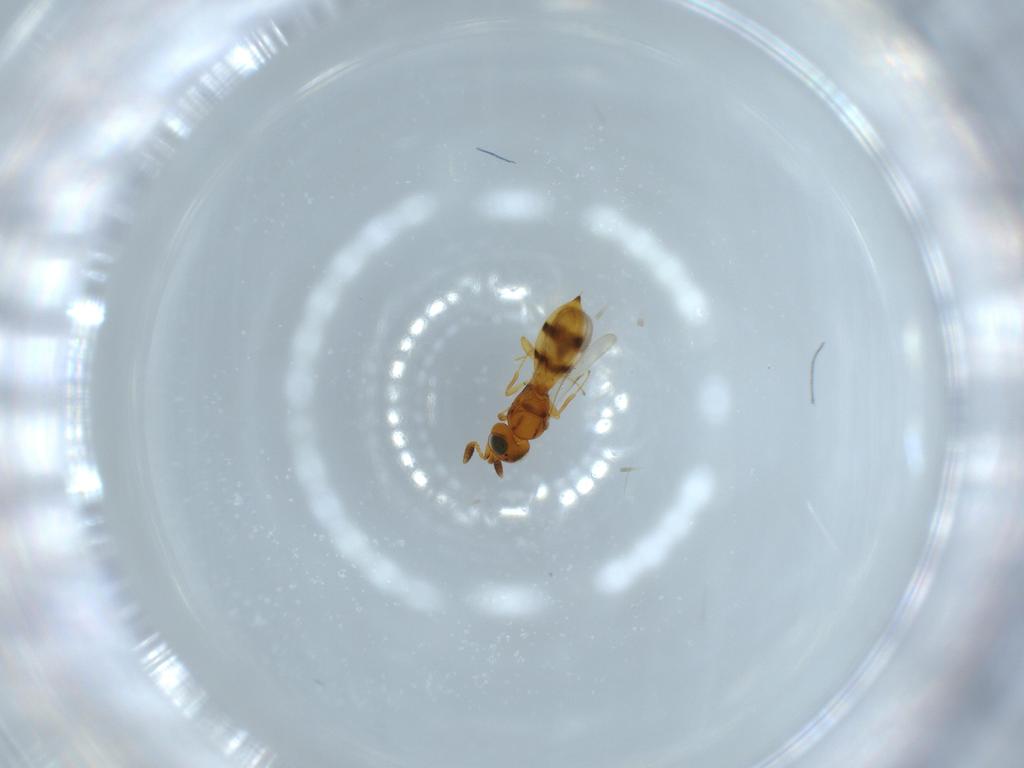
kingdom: Animalia
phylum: Arthropoda
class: Insecta
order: Hymenoptera
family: Scelionidae
